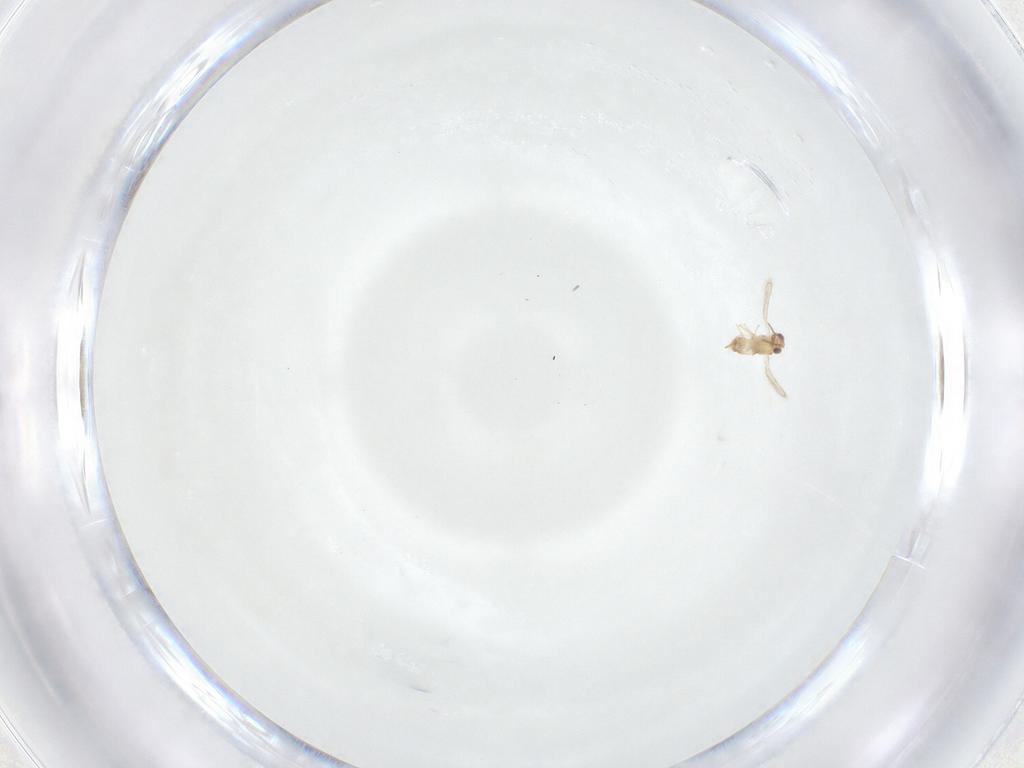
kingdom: Animalia
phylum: Arthropoda
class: Insecta
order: Hymenoptera
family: Aphelinidae
